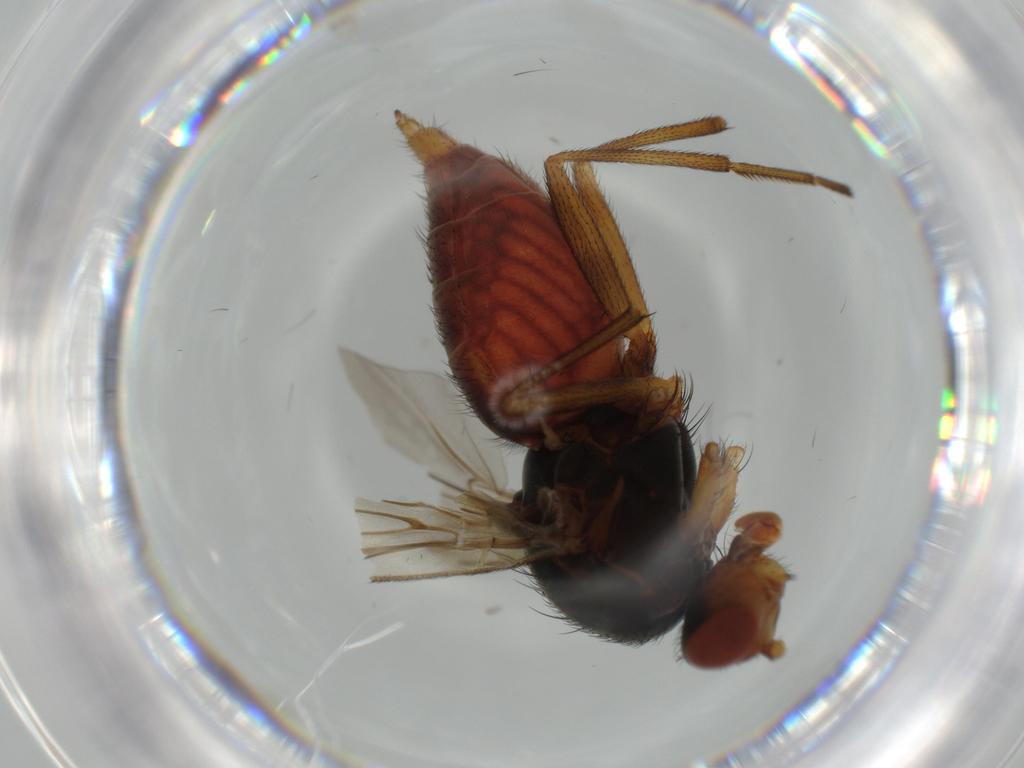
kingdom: Animalia
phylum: Arthropoda
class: Insecta
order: Diptera
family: Heleomyzidae
